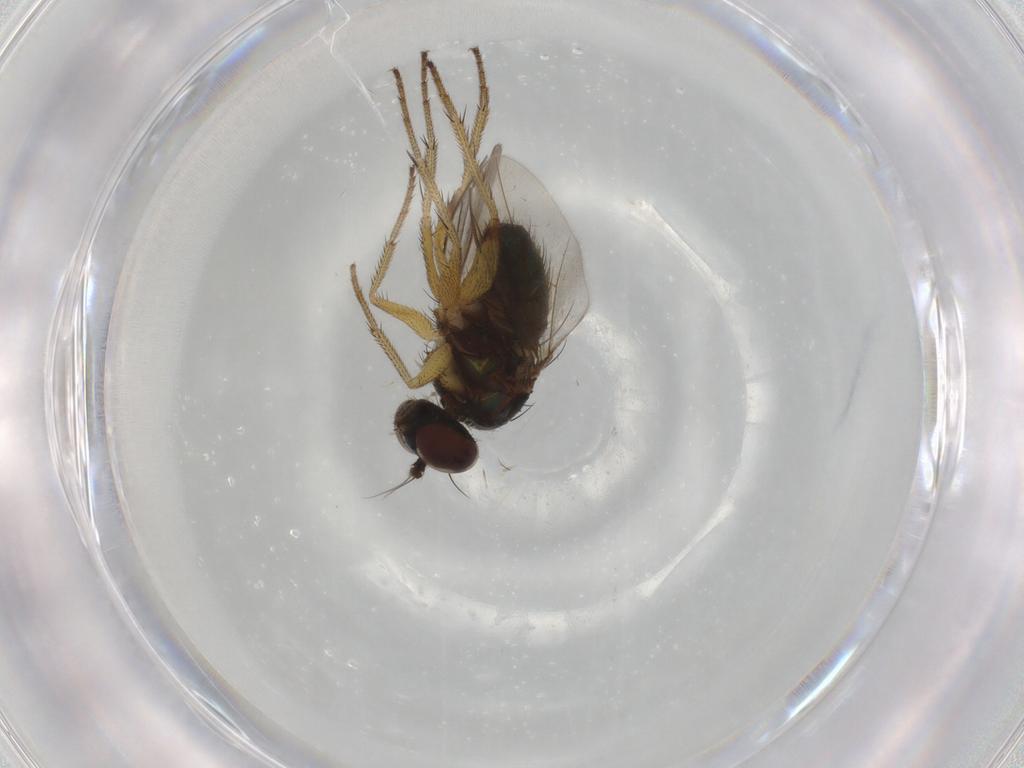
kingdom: Animalia
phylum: Arthropoda
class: Insecta
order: Diptera
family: Dolichopodidae
